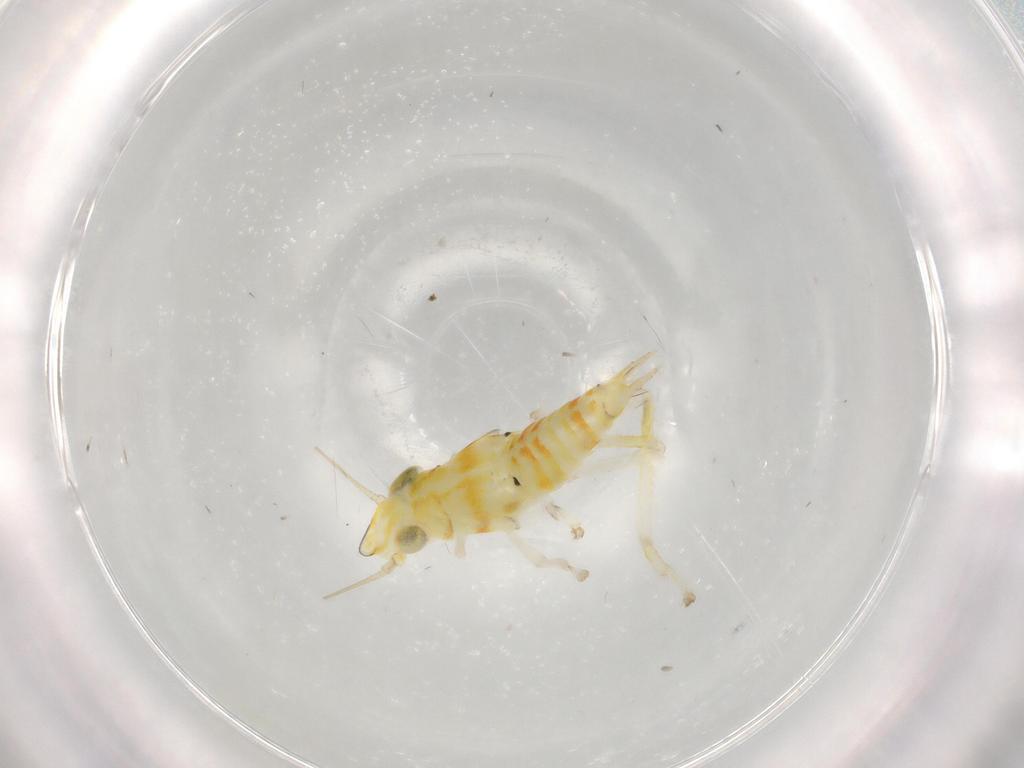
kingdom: Animalia
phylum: Arthropoda
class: Insecta
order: Hemiptera
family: Cicadellidae
